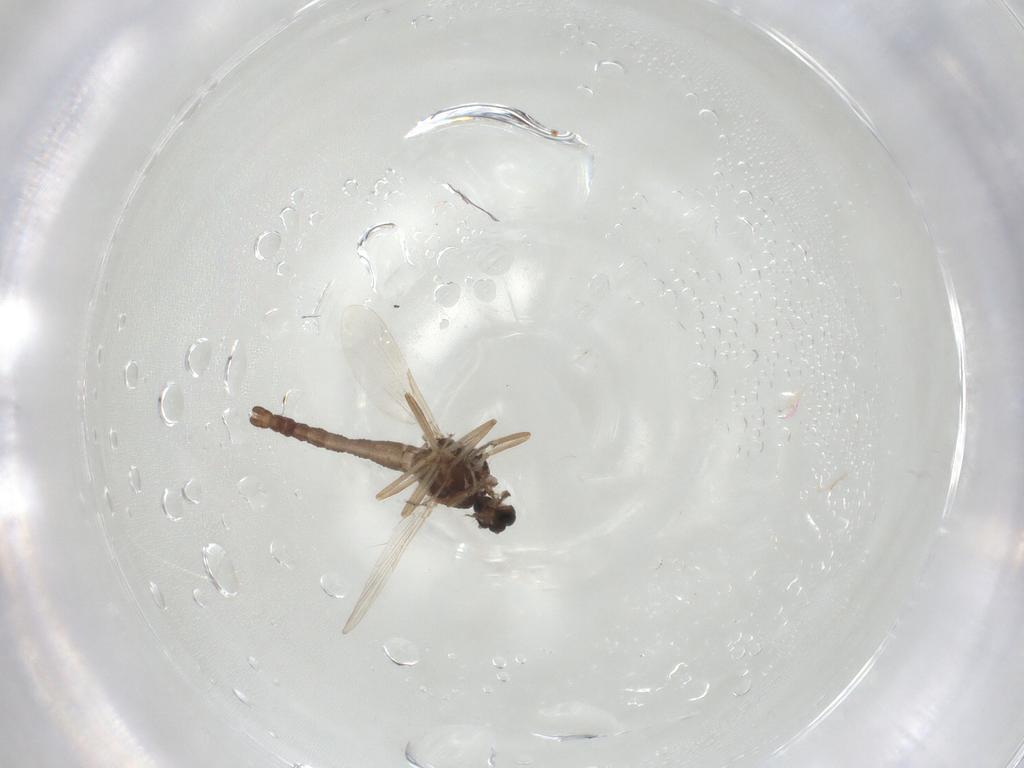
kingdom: Animalia
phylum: Arthropoda
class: Insecta
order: Diptera
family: Ceratopogonidae
